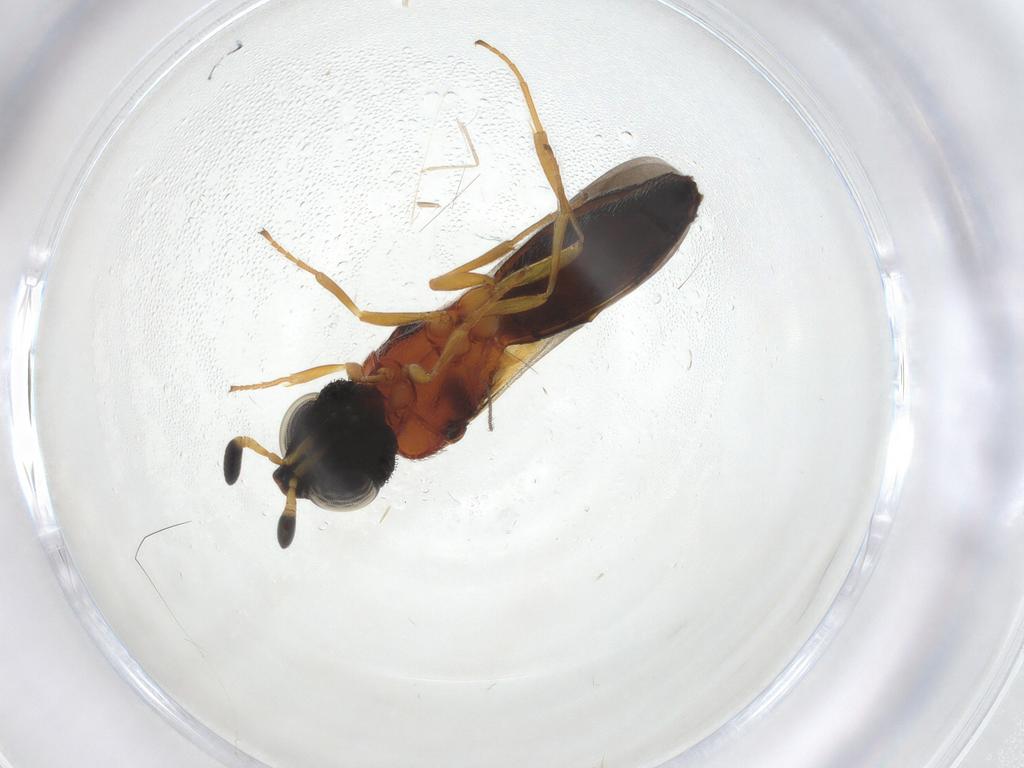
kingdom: Animalia
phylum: Arthropoda
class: Insecta
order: Hymenoptera
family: Scelionidae
